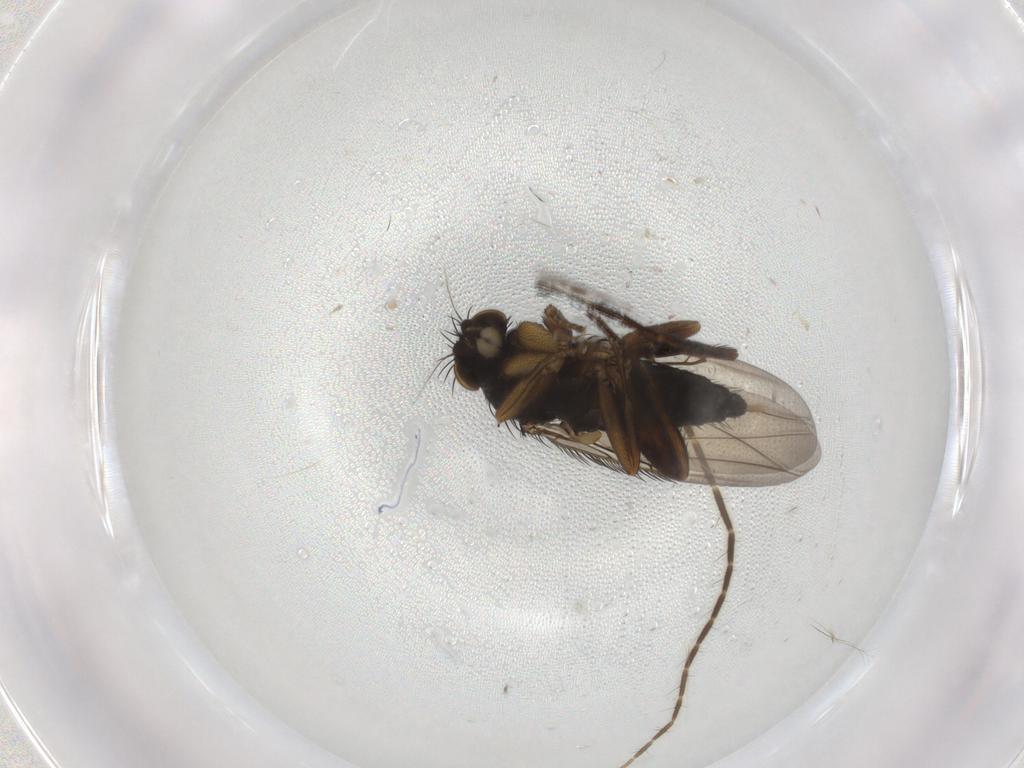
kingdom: Animalia
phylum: Arthropoda
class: Insecta
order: Diptera
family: Phoridae
